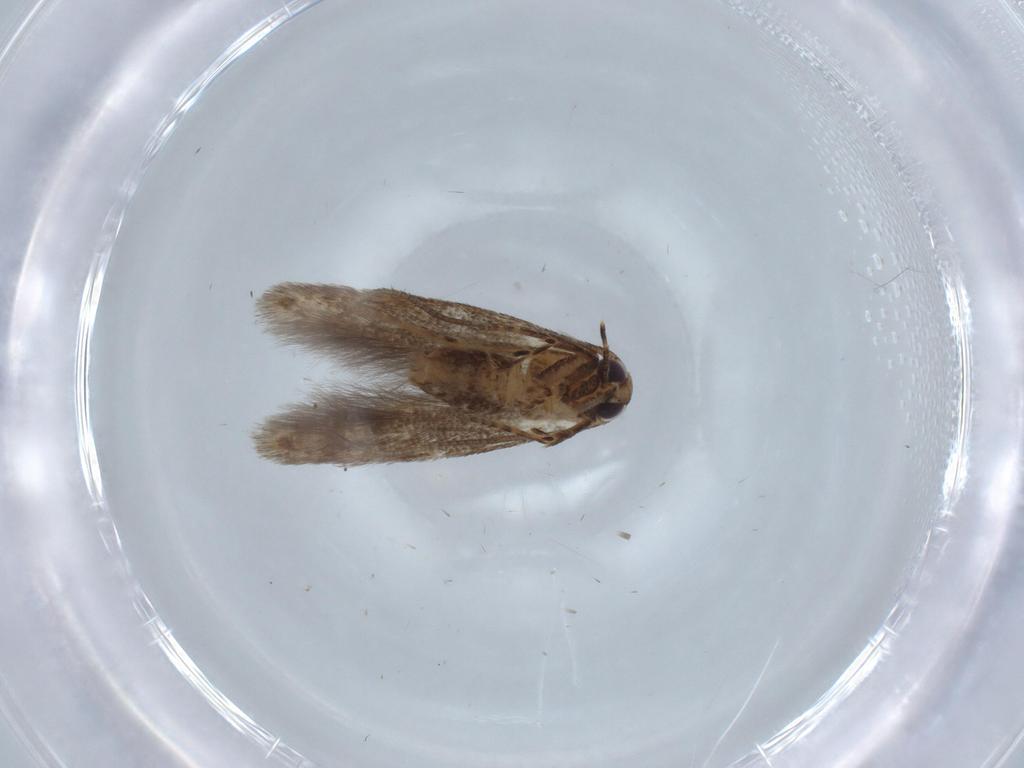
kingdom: Animalia
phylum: Arthropoda
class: Insecta
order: Lepidoptera
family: Cosmopterigidae
